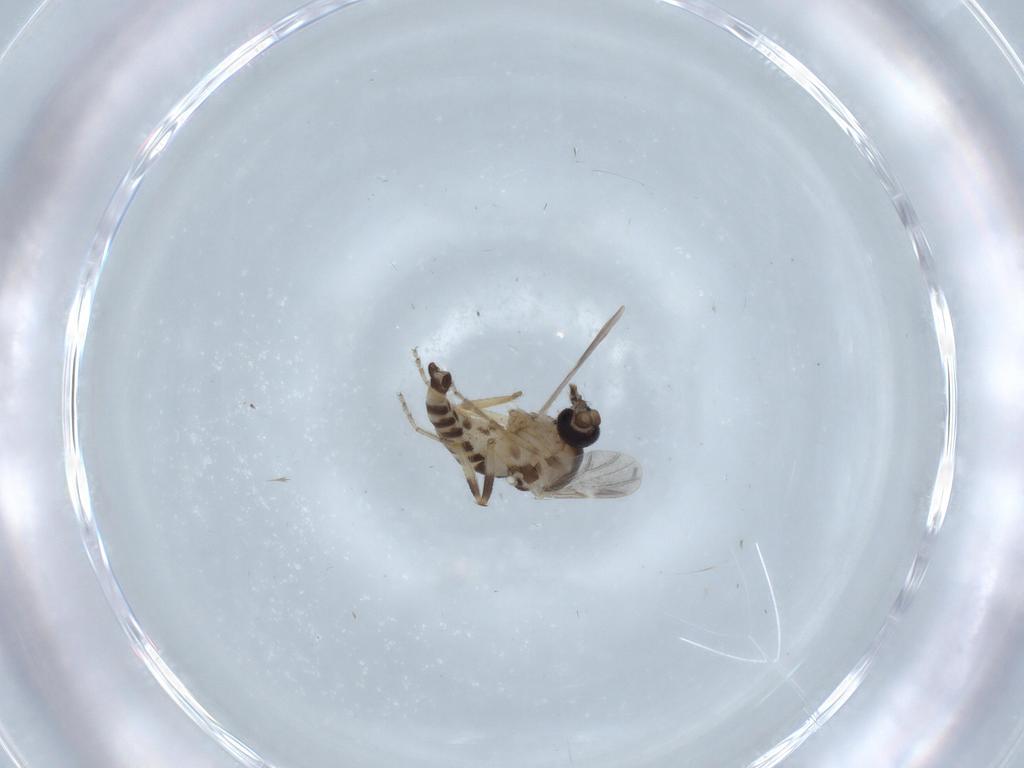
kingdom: Animalia
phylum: Arthropoda
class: Insecta
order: Diptera
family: Ceratopogonidae
